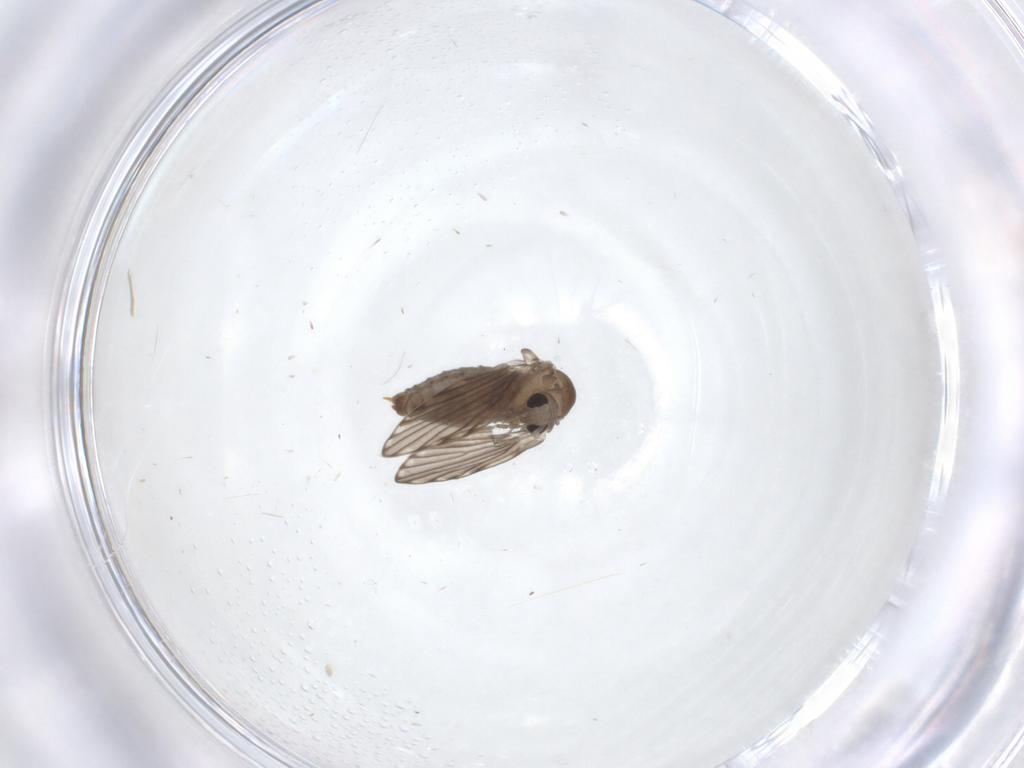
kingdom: Animalia
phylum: Arthropoda
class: Insecta
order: Diptera
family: Psychodidae
